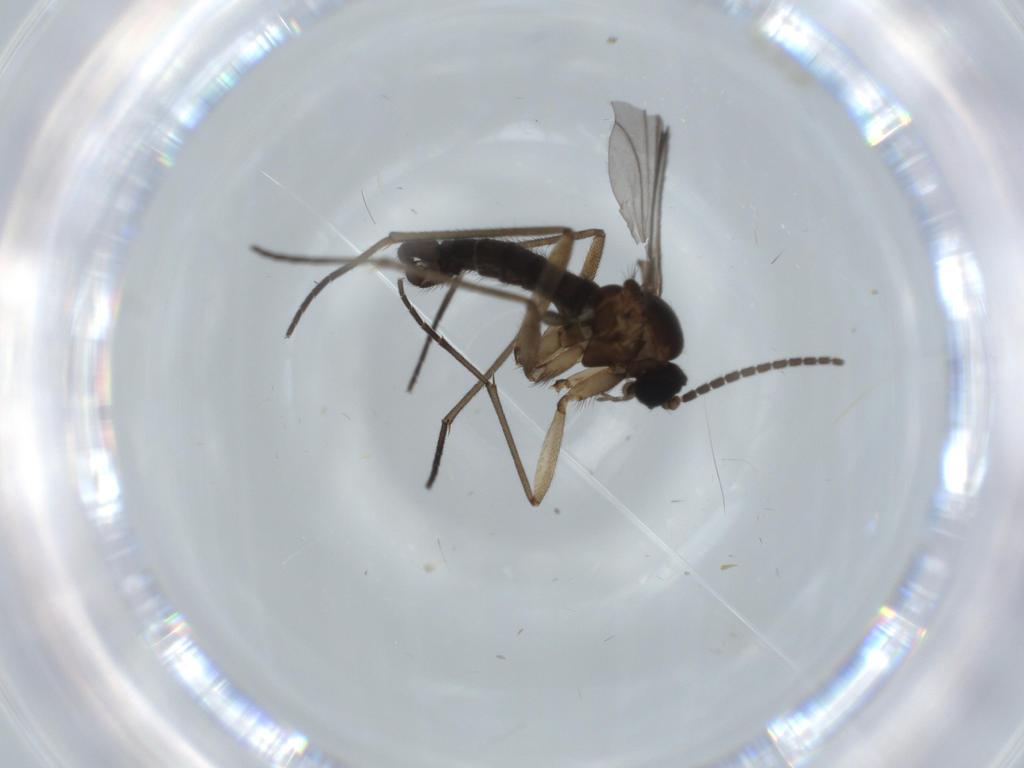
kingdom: Animalia
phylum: Arthropoda
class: Insecta
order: Diptera
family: Sciaridae
